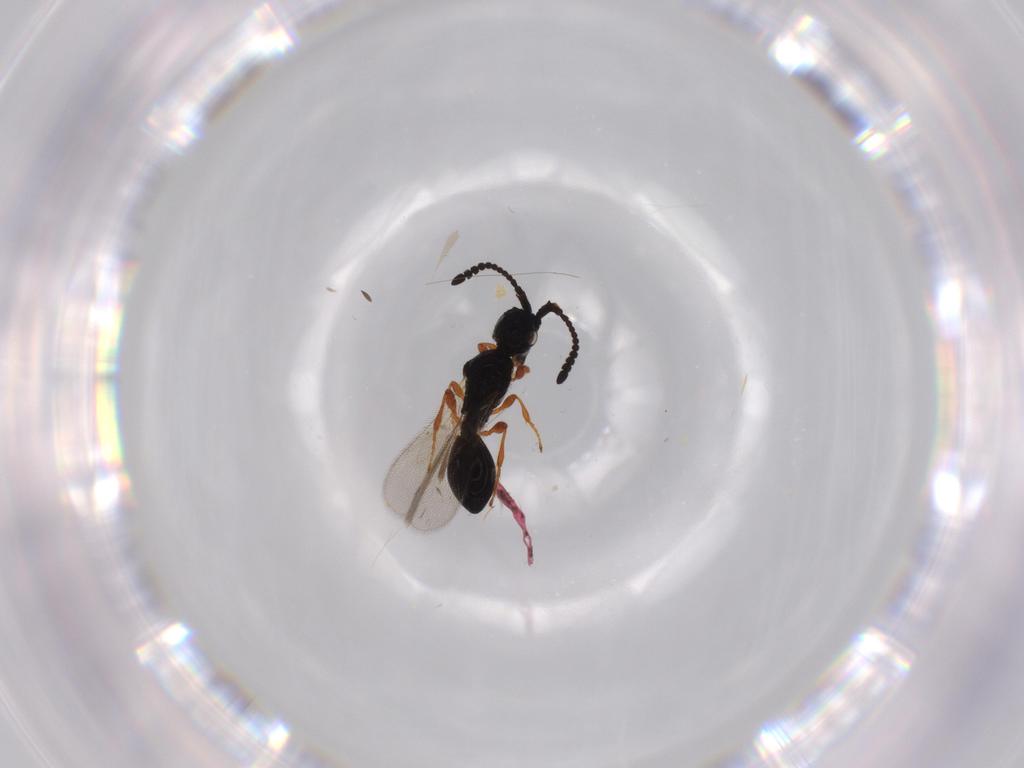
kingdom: Animalia
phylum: Arthropoda
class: Insecta
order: Hymenoptera
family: Diapriidae
